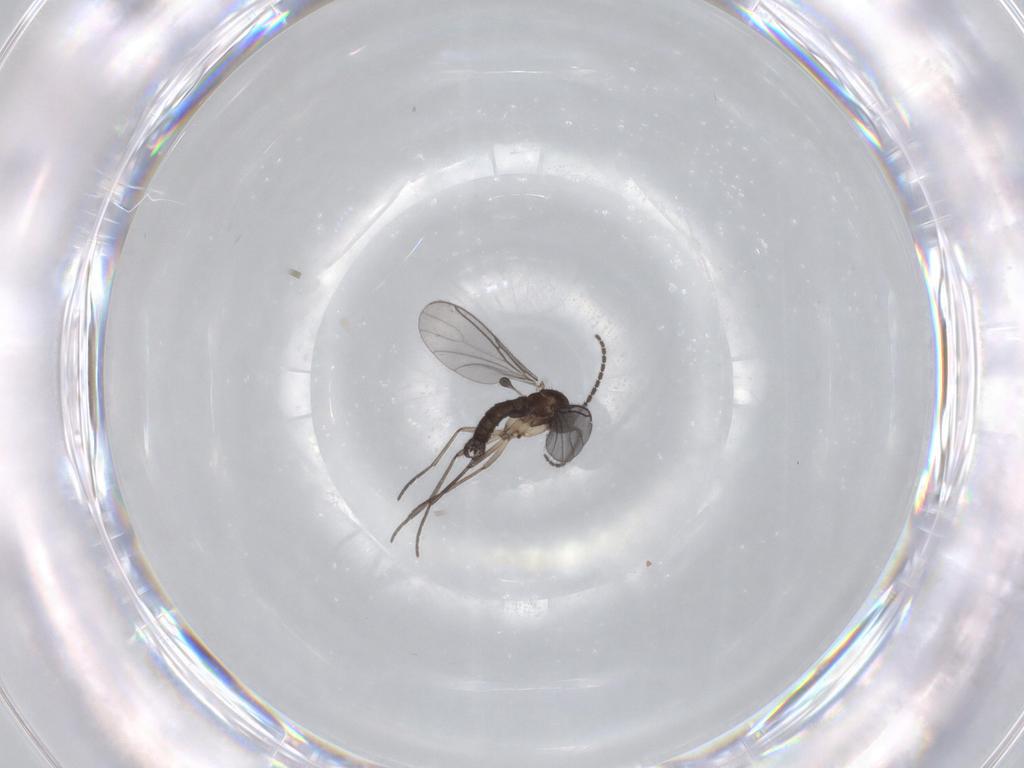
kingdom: Animalia
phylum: Arthropoda
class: Insecta
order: Diptera
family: Sciaridae
